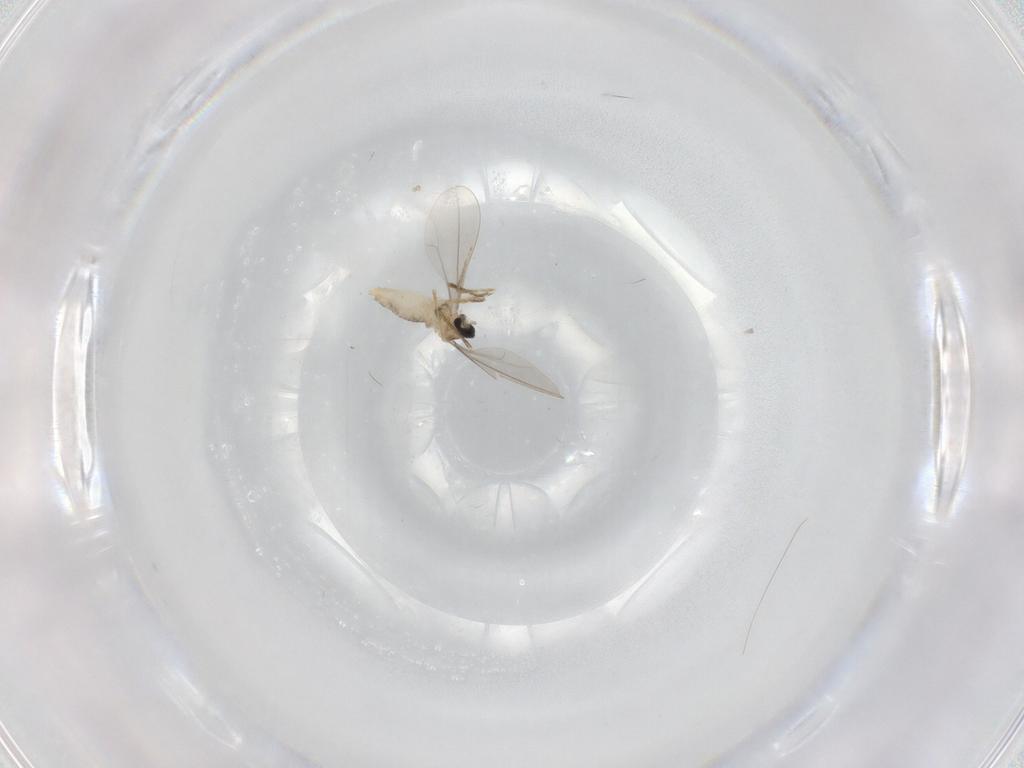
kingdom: Animalia
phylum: Arthropoda
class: Insecta
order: Diptera
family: Cecidomyiidae
